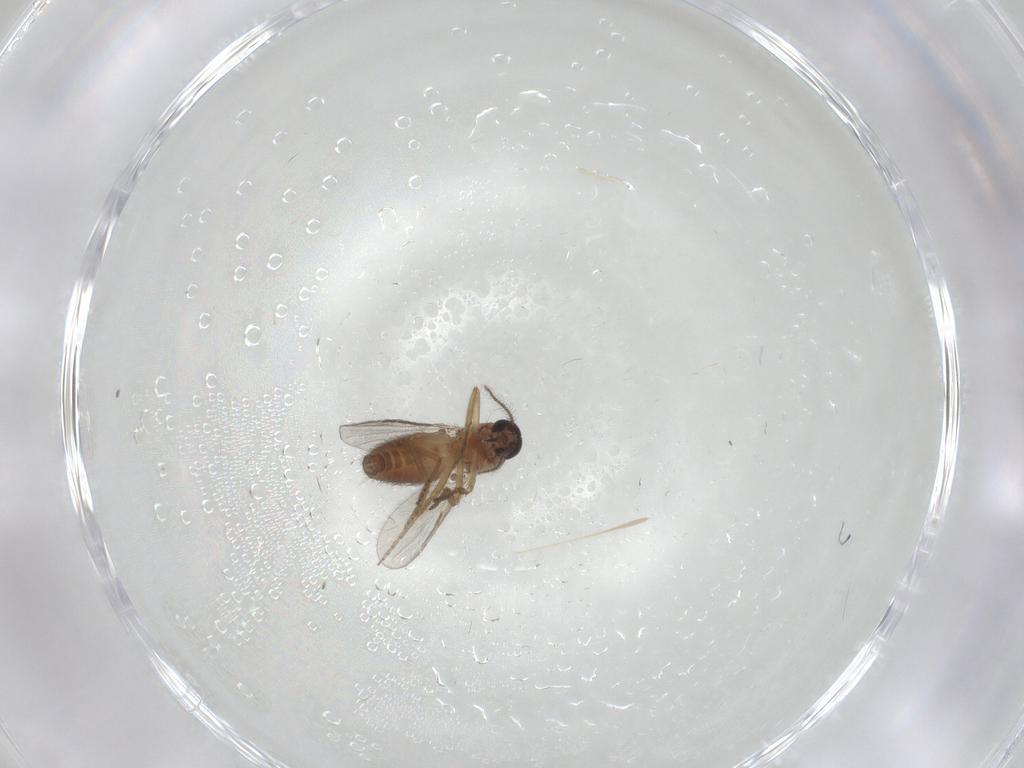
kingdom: Animalia
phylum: Arthropoda
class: Insecta
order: Diptera
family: Ceratopogonidae
